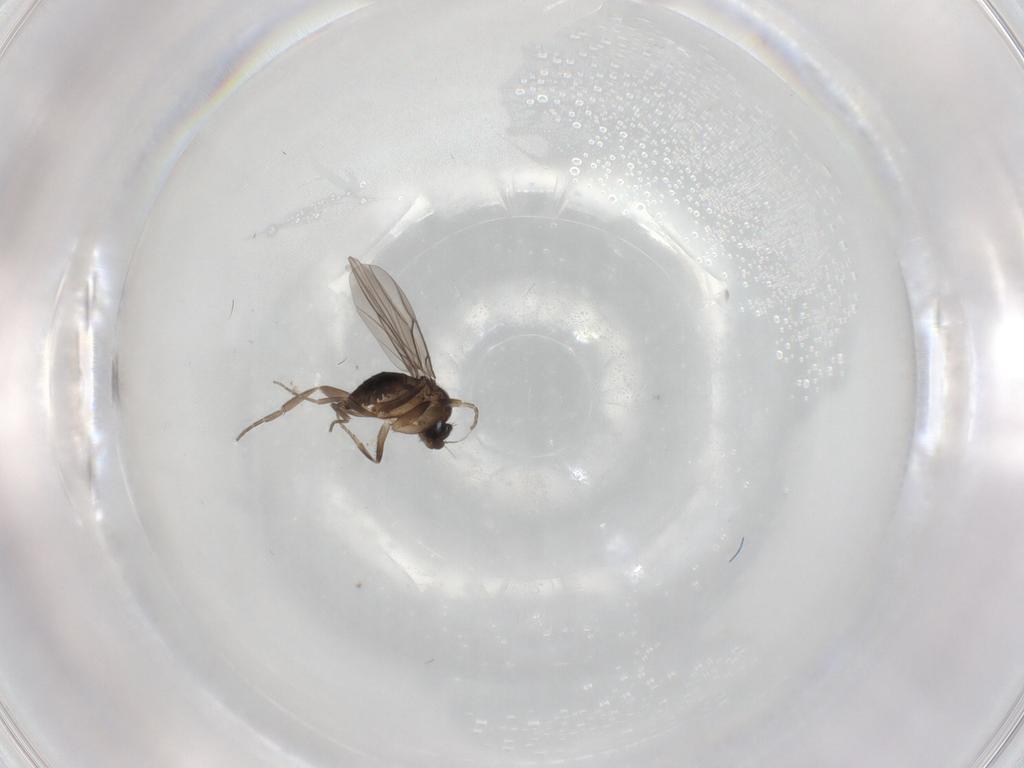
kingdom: Animalia
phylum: Arthropoda
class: Insecta
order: Diptera
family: Phoridae
